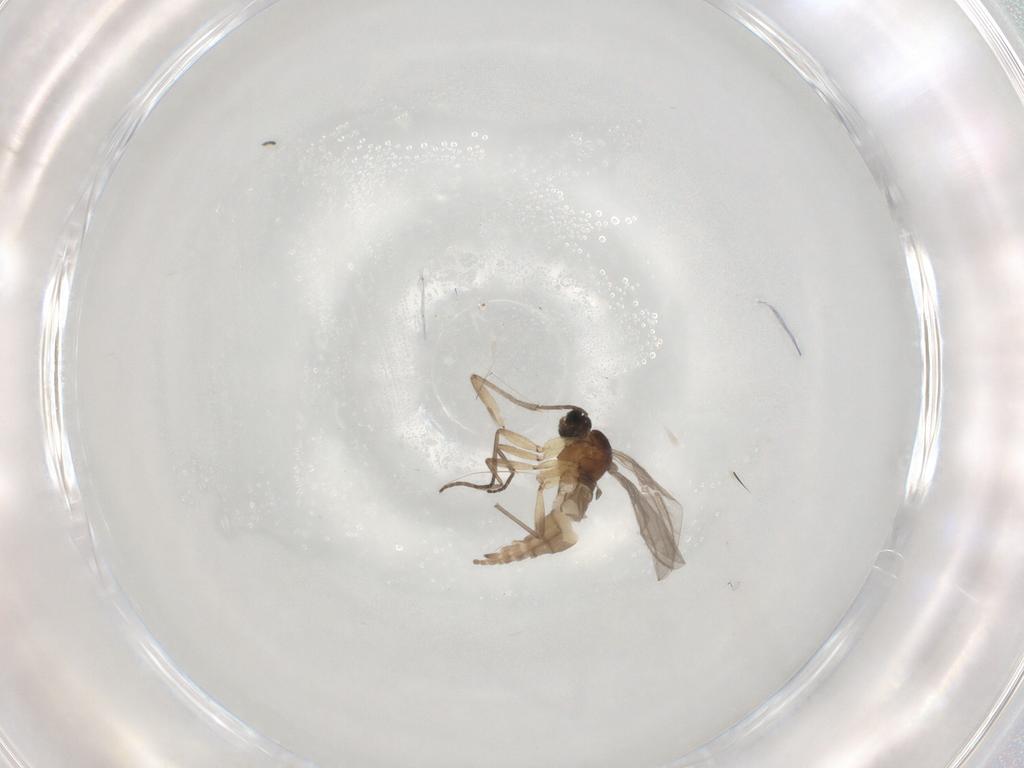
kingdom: Animalia
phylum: Arthropoda
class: Insecta
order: Diptera
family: Sciaridae
